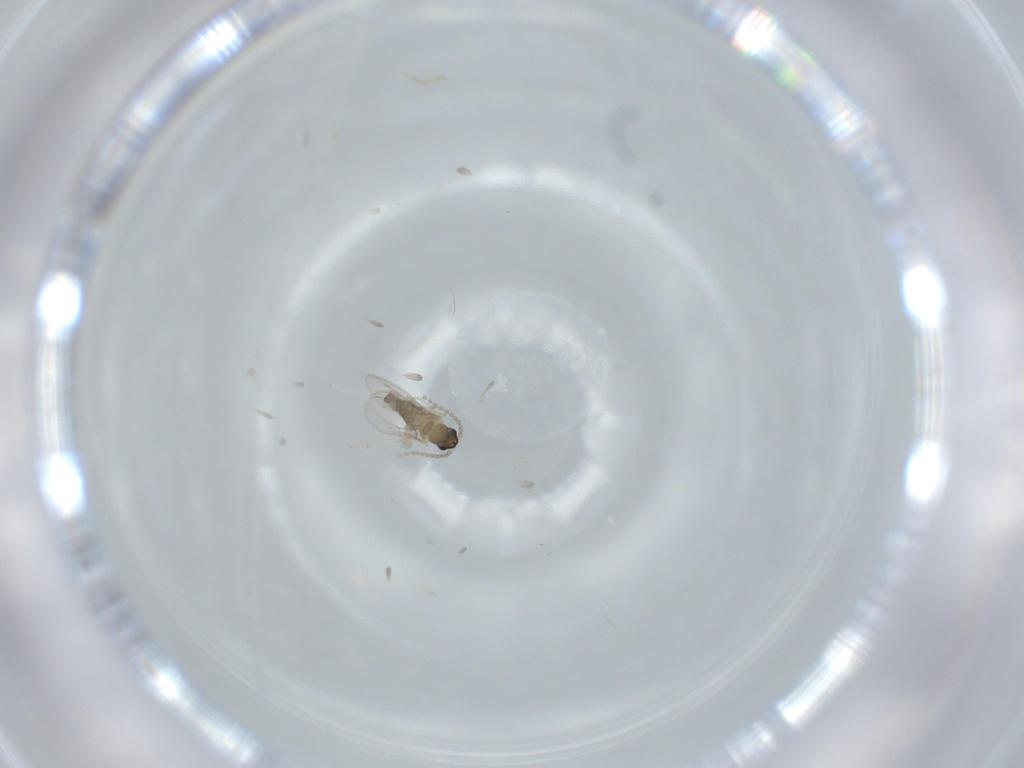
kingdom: Animalia
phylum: Arthropoda
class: Insecta
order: Diptera
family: Cecidomyiidae
